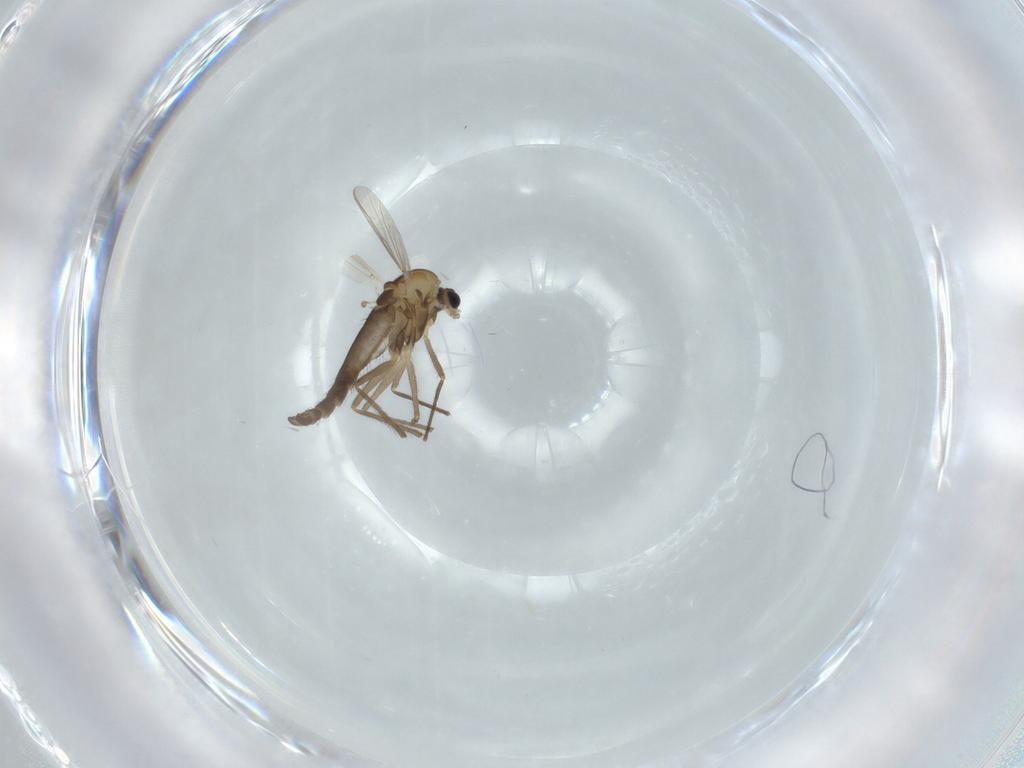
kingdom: Animalia
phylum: Arthropoda
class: Insecta
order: Diptera
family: Chironomidae
